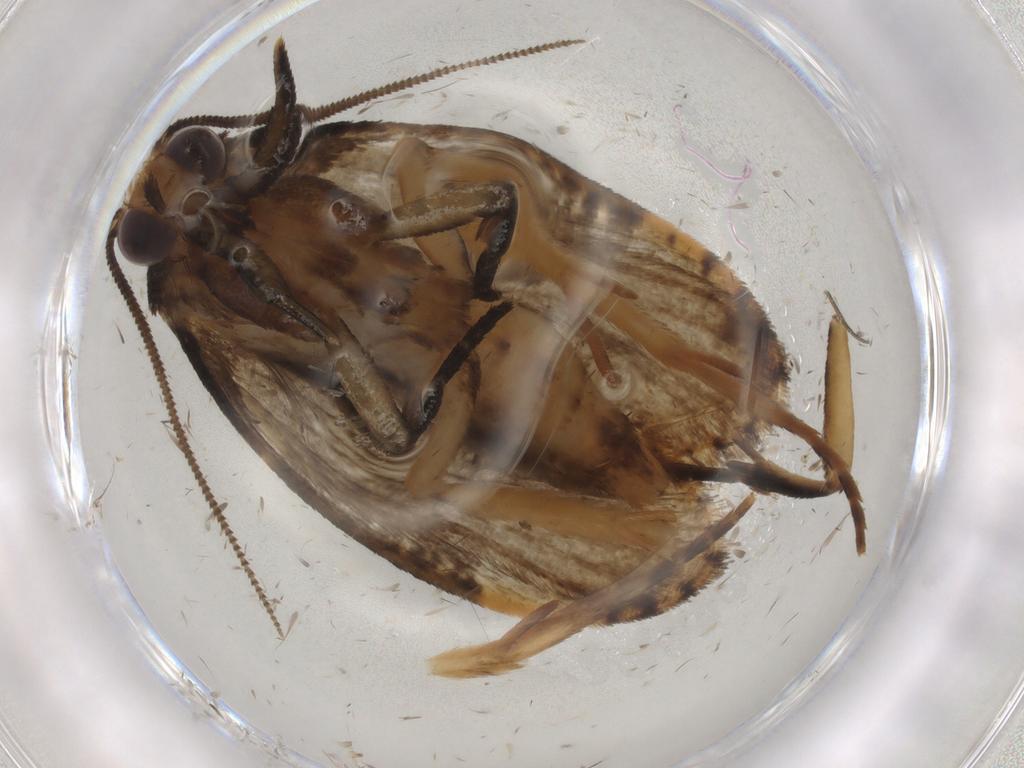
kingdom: Animalia
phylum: Arthropoda
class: Insecta
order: Lepidoptera
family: Tineidae
